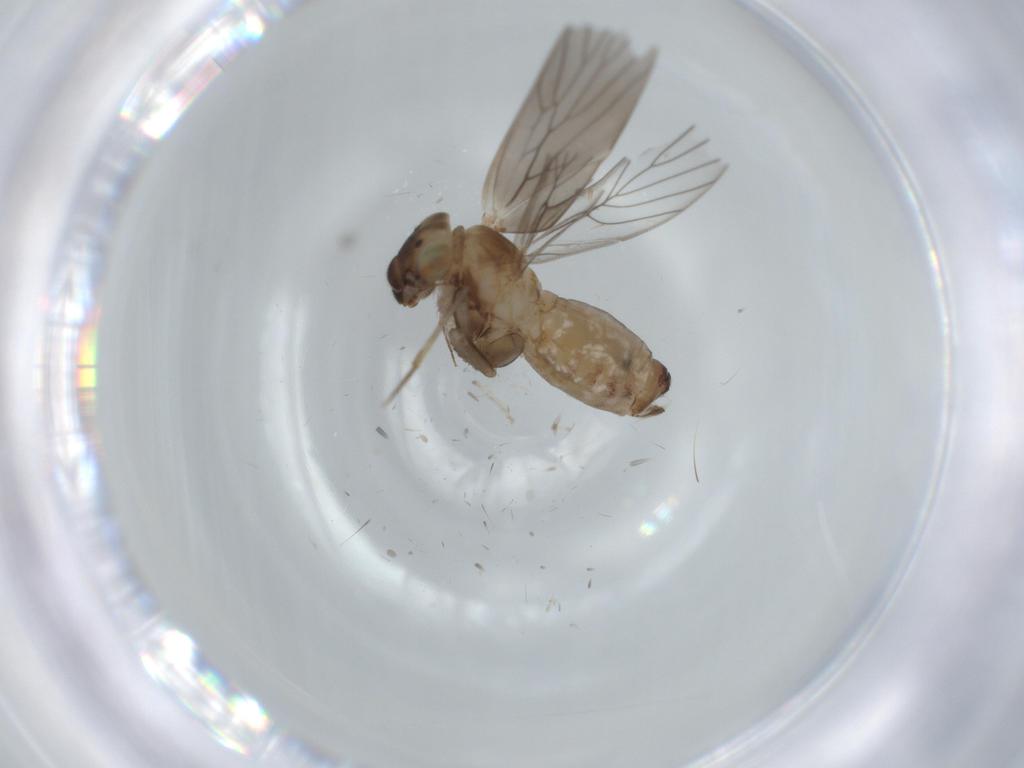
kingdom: Animalia
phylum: Arthropoda
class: Insecta
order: Psocodea
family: Lepidopsocidae
